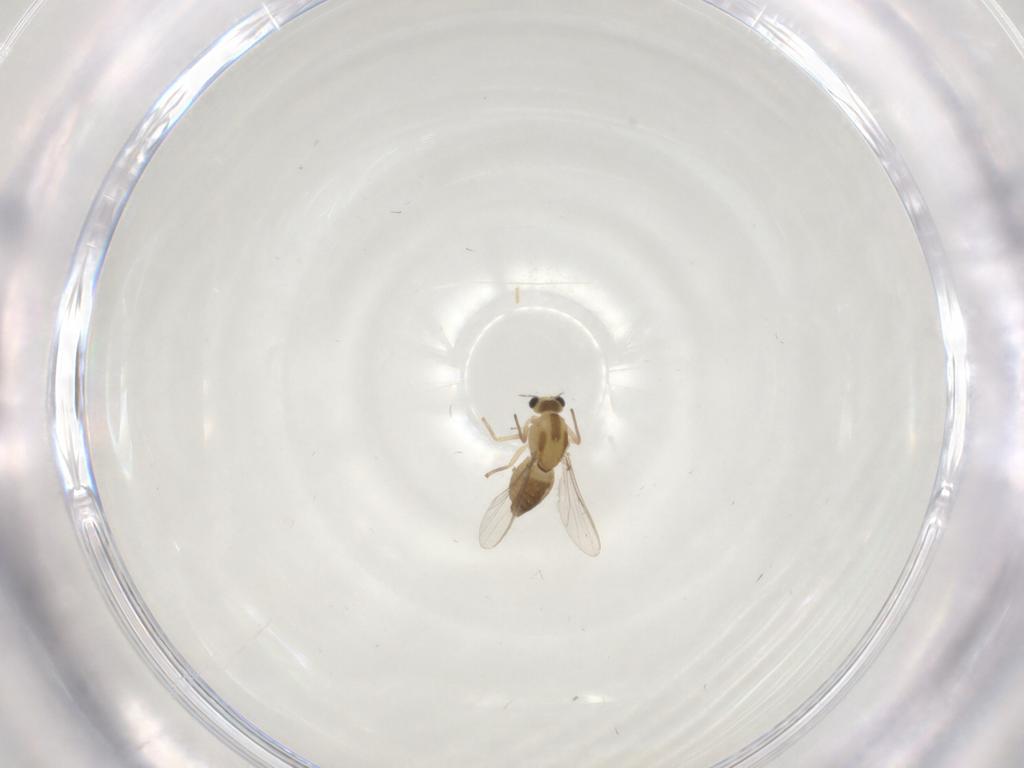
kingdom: Animalia
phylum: Arthropoda
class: Insecta
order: Diptera
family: Chironomidae
